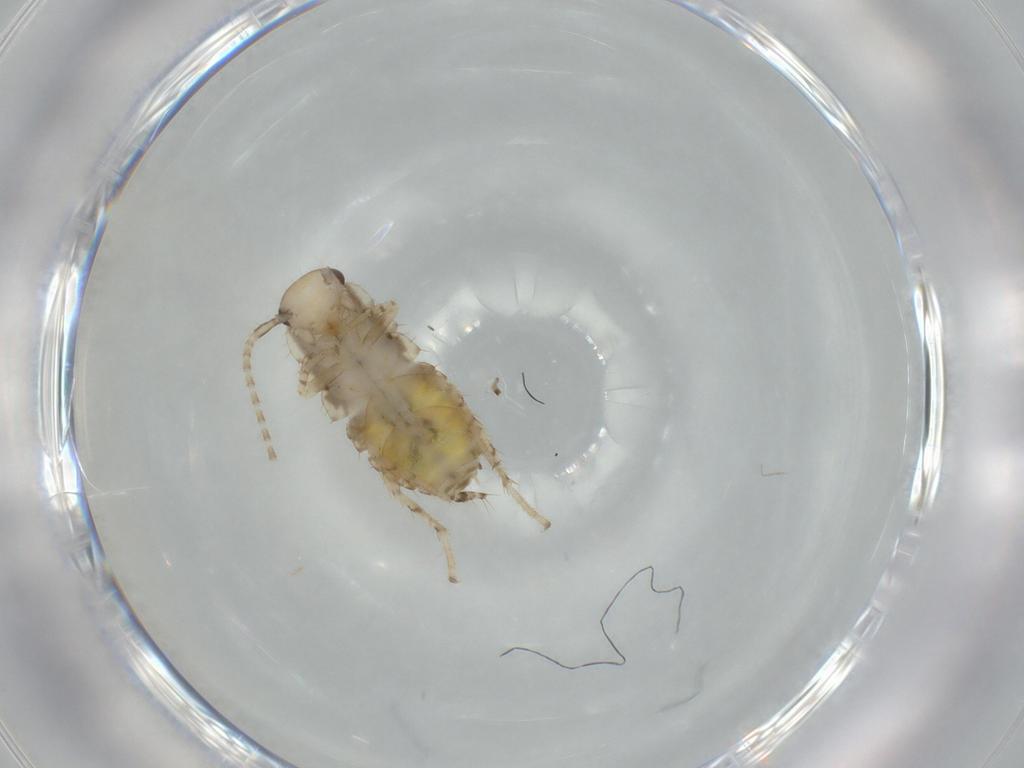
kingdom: Animalia
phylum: Arthropoda
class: Insecta
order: Blattodea
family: Ectobiidae
